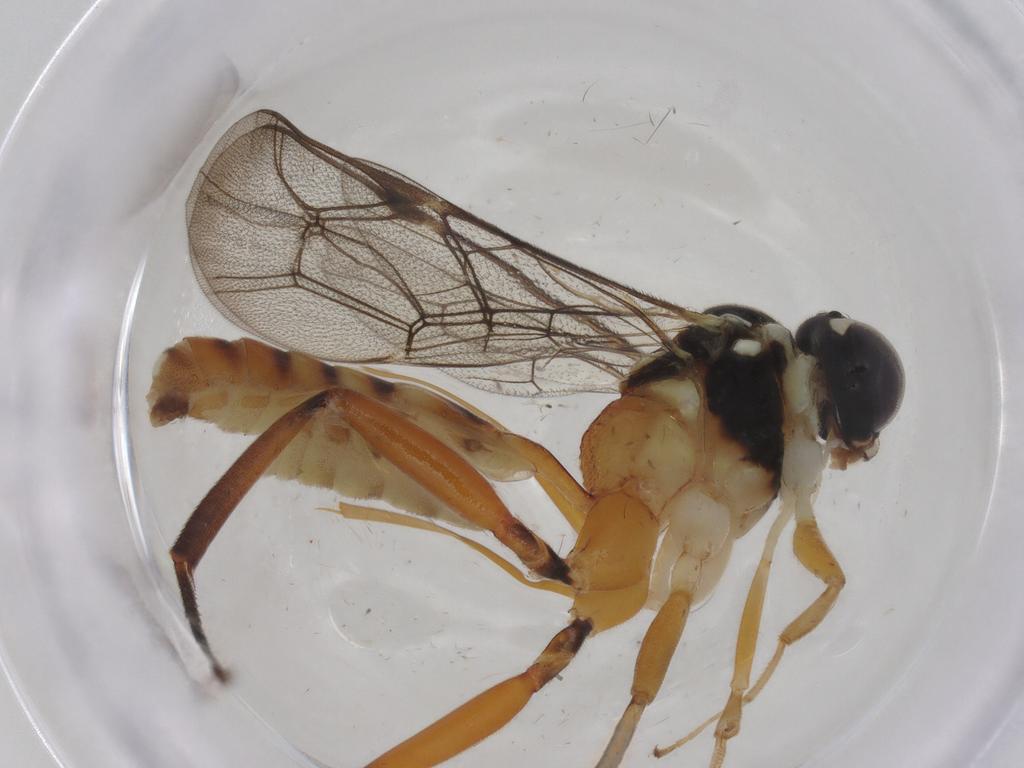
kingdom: Animalia
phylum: Arthropoda
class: Insecta
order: Hymenoptera
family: Ichneumonidae
